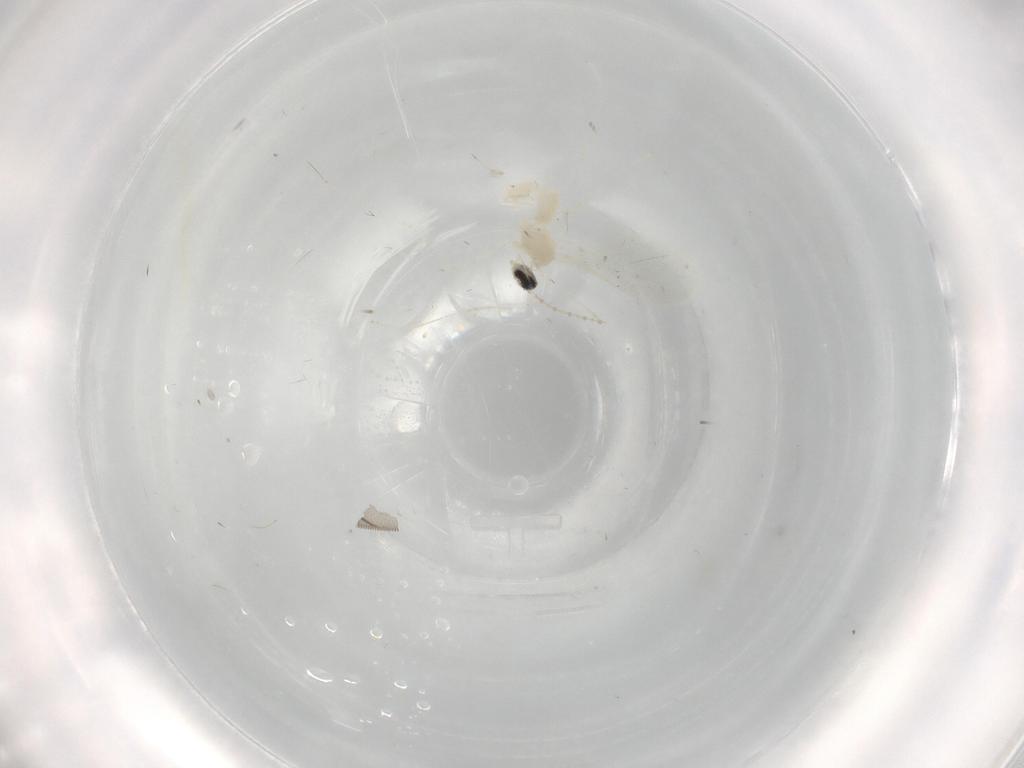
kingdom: Animalia
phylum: Arthropoda
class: Insecta
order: Diptera
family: Cecidomyiidae
